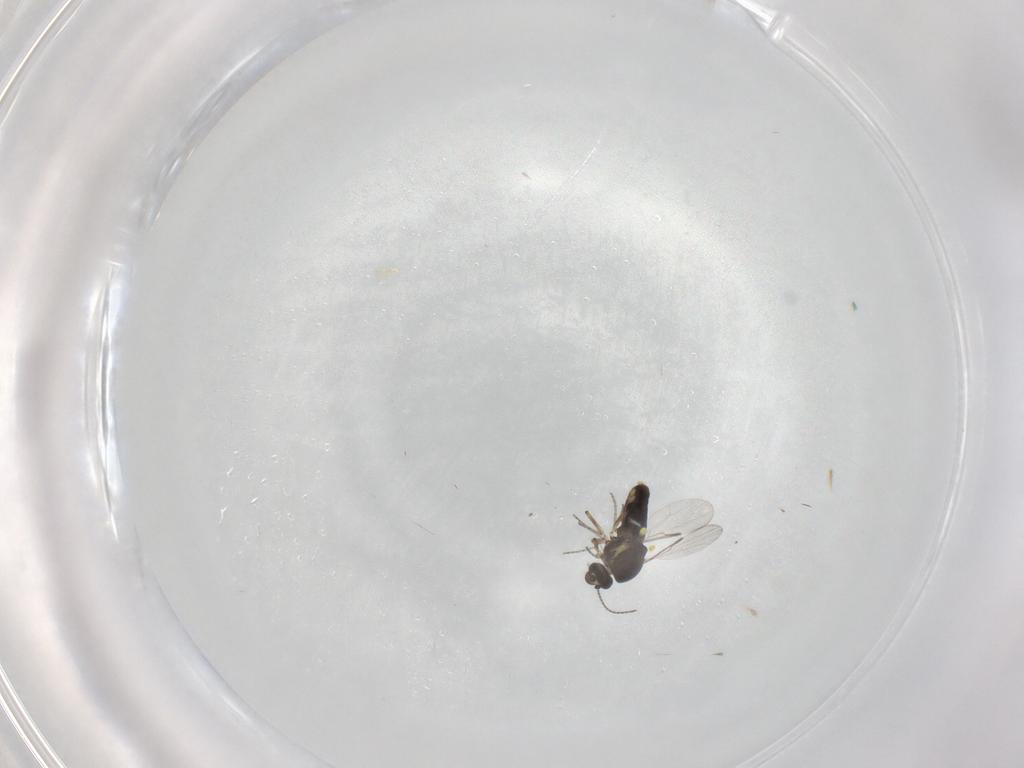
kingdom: Animalia
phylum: Arthropoda
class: Insecta
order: Diptera
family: Ceratopogonidae
